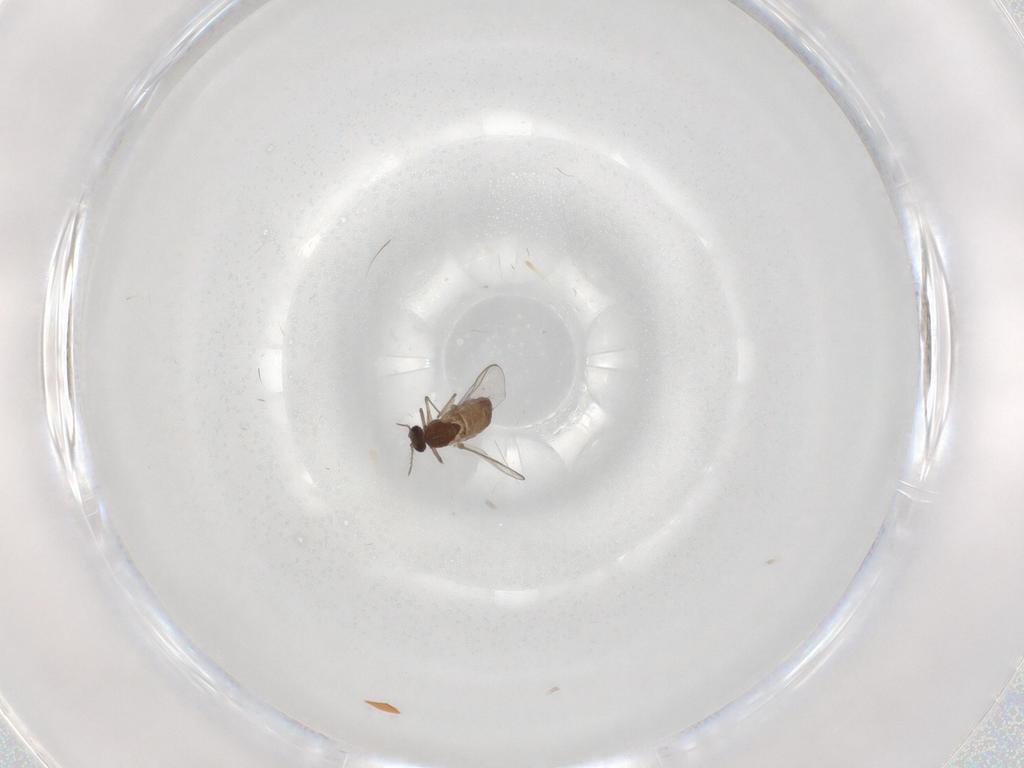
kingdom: Animalia
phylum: Arthropoda
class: Insecta
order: Diptera
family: Chironomidae
